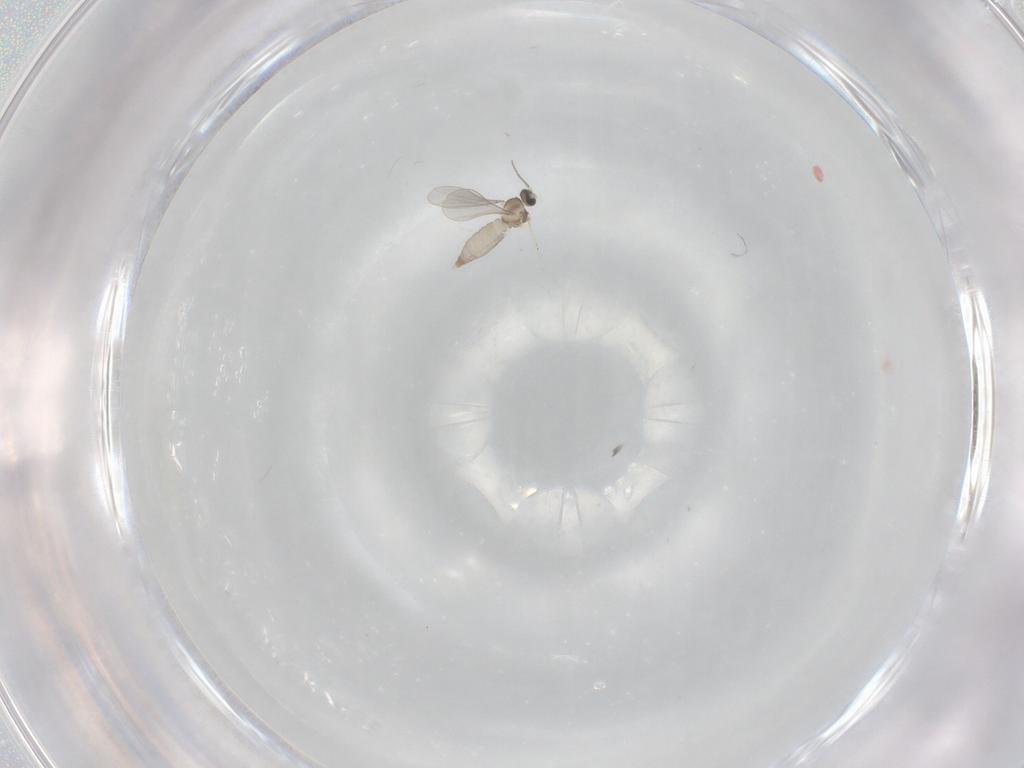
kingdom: Animalia
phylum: Arthropoda
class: Insecta
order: Diptera
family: Cecidomyiidae
